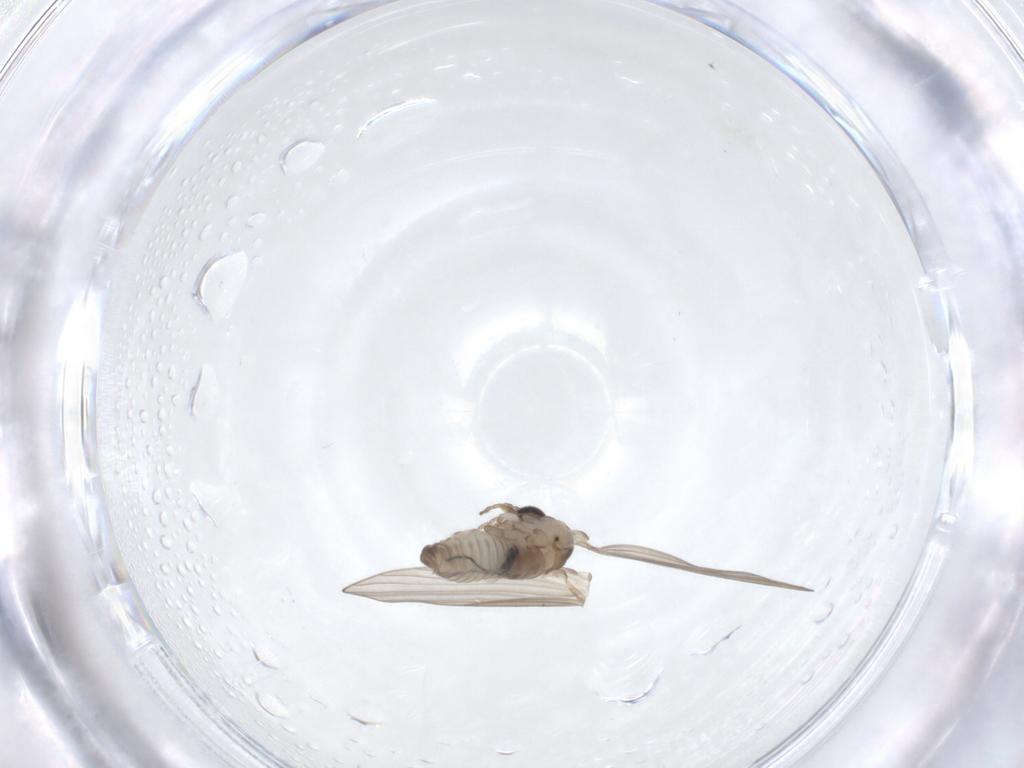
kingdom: Animalia
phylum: Arthropoda
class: Insecta
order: Diptera
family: Psychodidae
